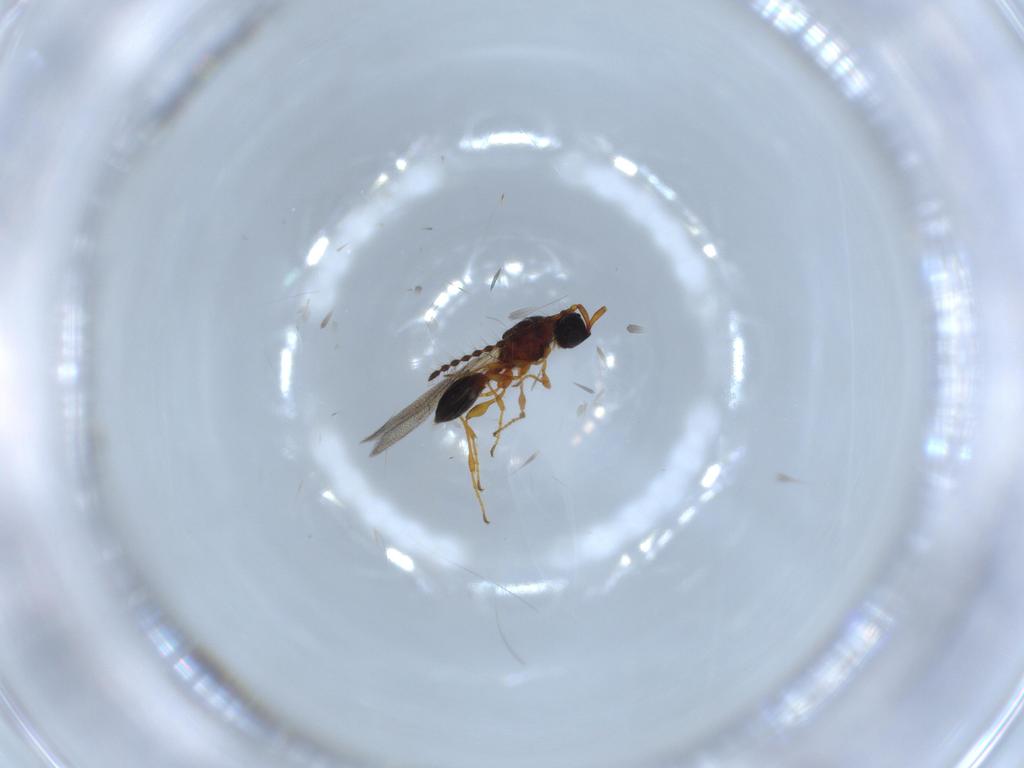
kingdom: Animalia
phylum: Arthropoda
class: Insecta
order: Hymenoptera
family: Diapriidae
